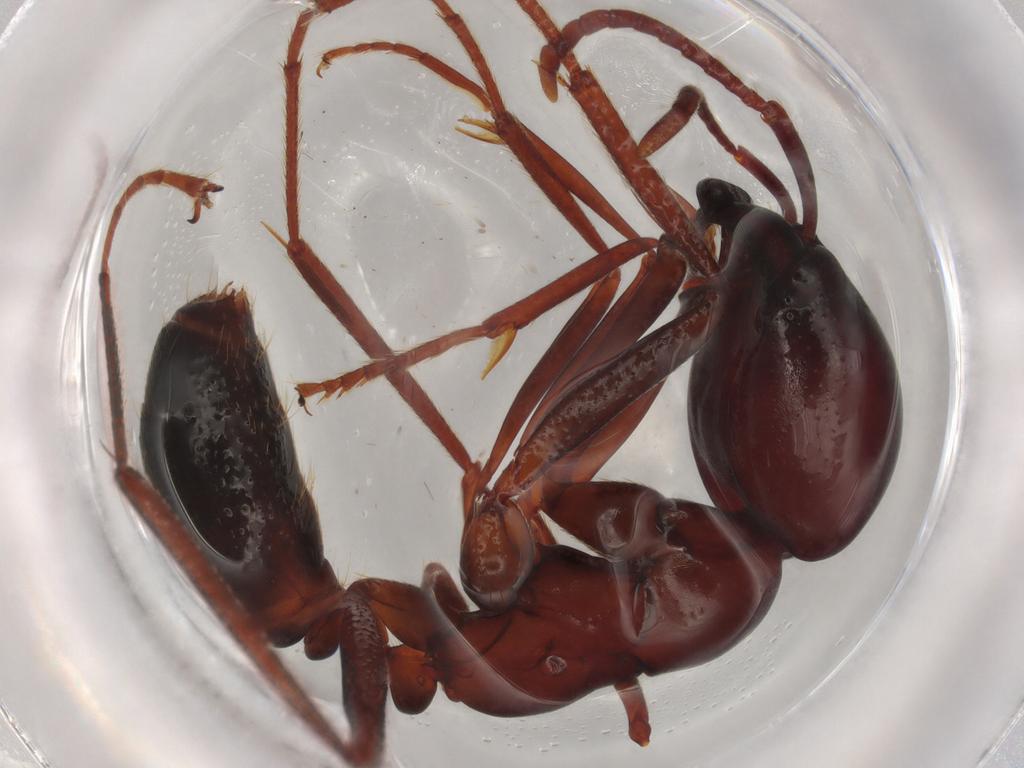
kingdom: Animalia
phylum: Arthropoda
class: Insecta
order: Hymenoptera
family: Formicidae
